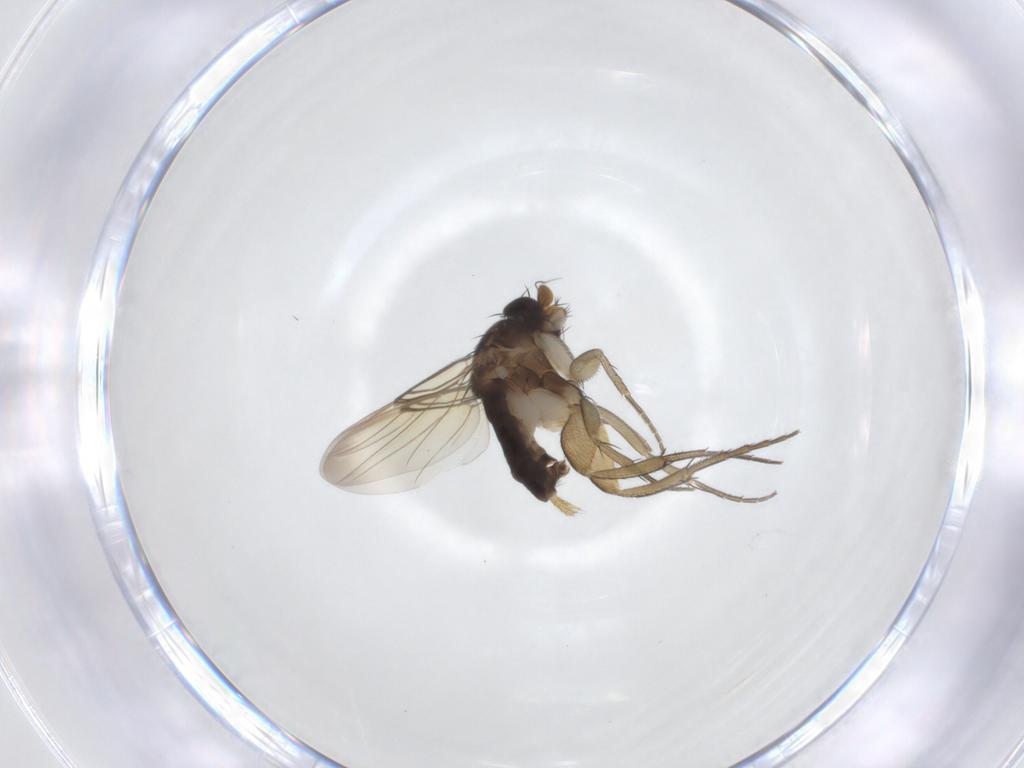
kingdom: Animalia
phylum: Arthropoda
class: Insecta
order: Diptera
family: Phoridae
